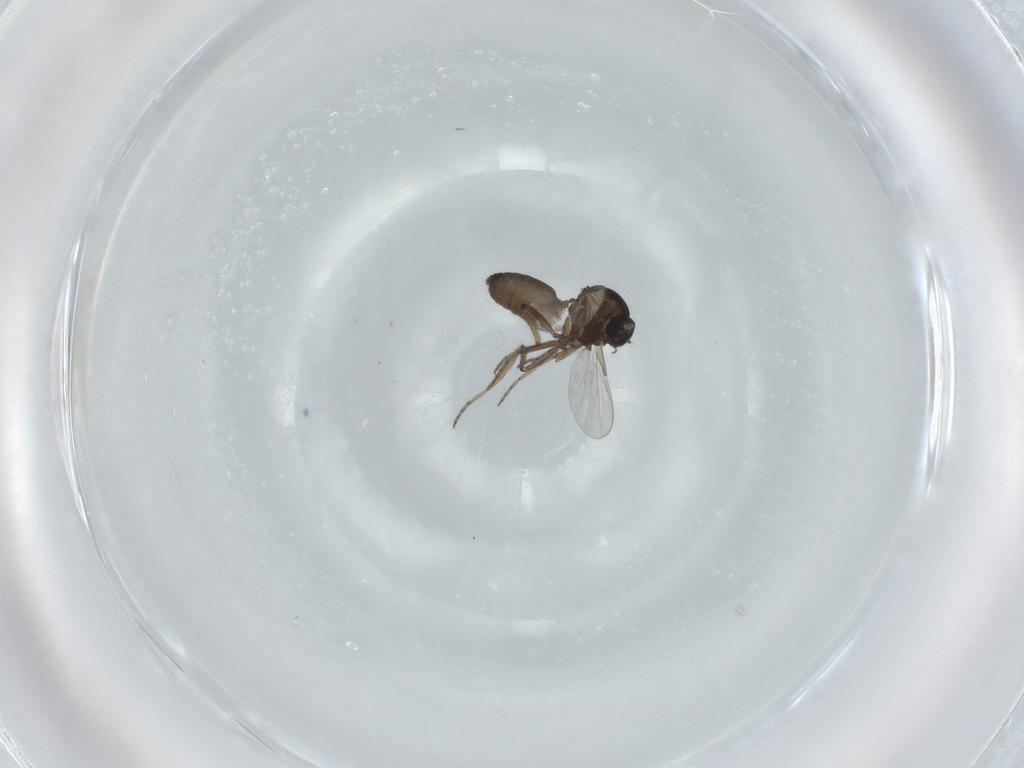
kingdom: Animalia
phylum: Arthropoda
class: Insecta
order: Diptera
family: Ceratopogonidae
